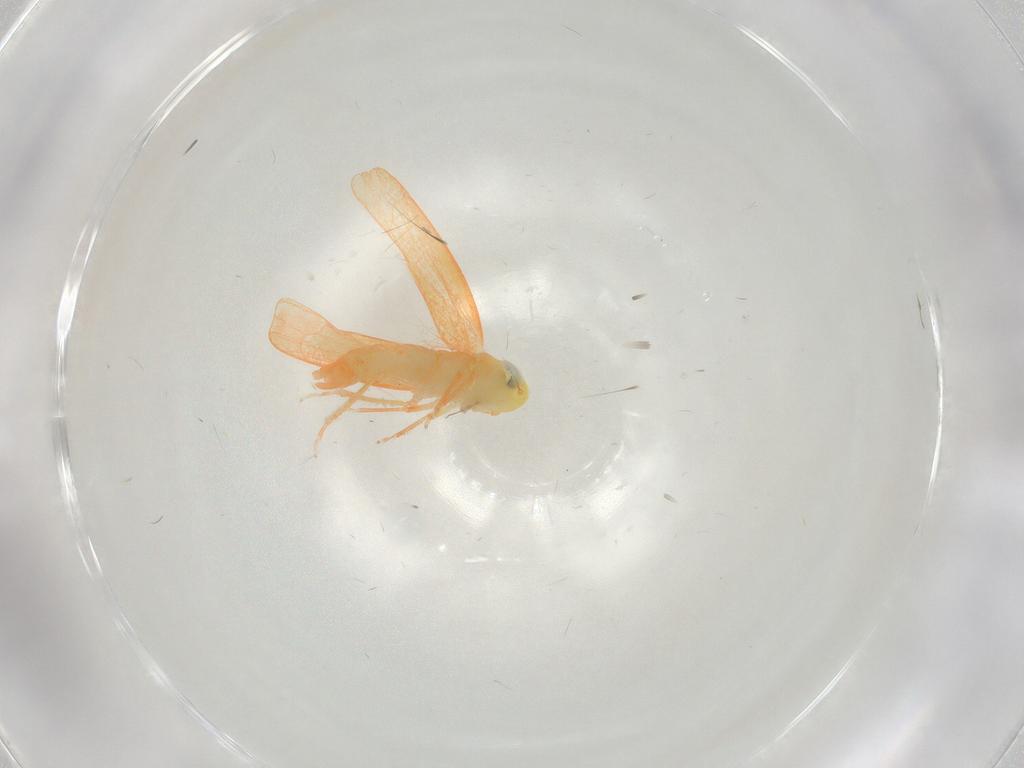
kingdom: Animalia
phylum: Arthropoda
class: Insecta
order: Hemiptera
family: Cicadellidae
